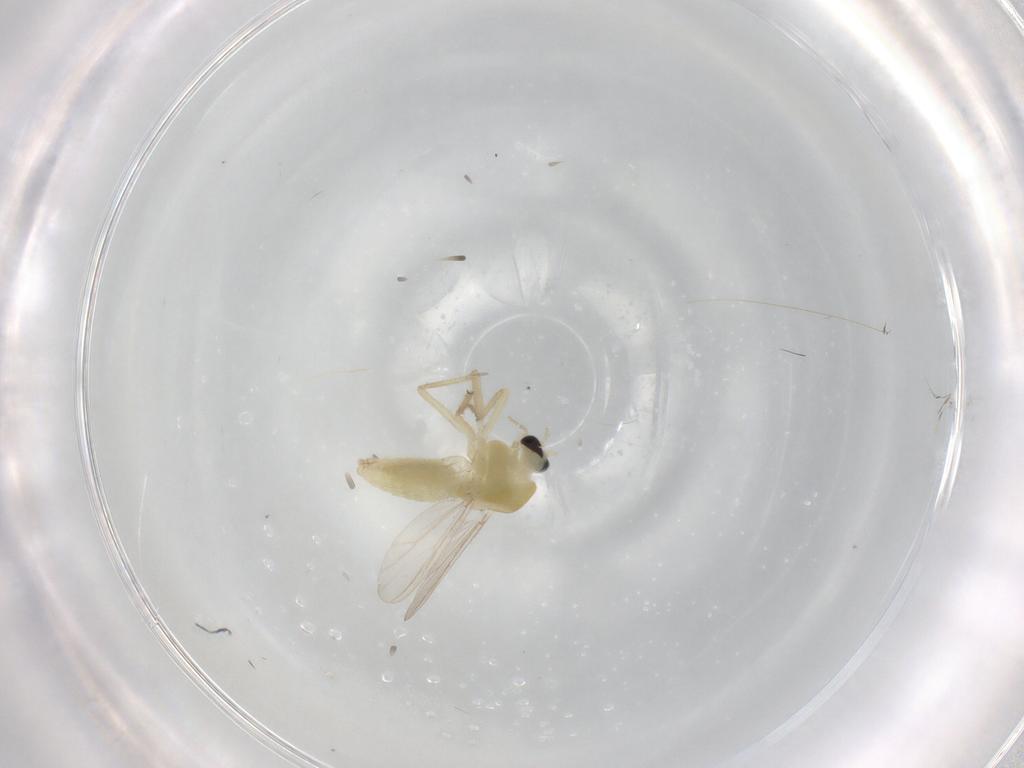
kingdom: Animalia
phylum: Arthropoda
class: Insecta
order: Diptera
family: Chironomidae
